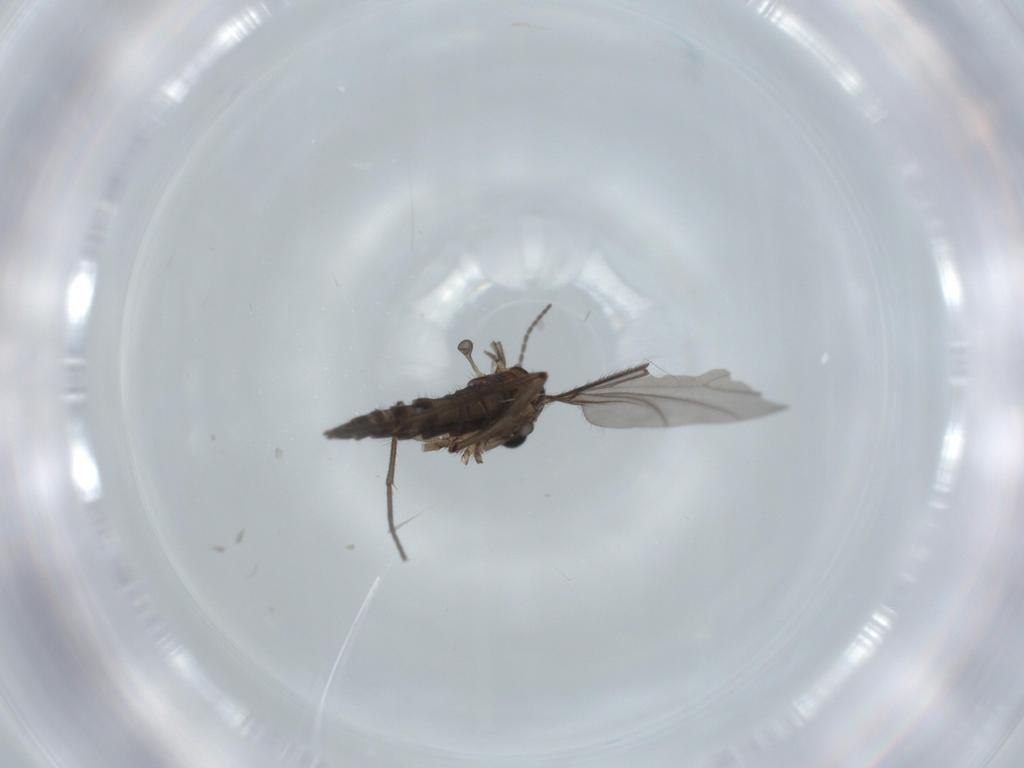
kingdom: Animalia
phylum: Arthropoda
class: Insecta
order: Diptera
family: Sciaridae
